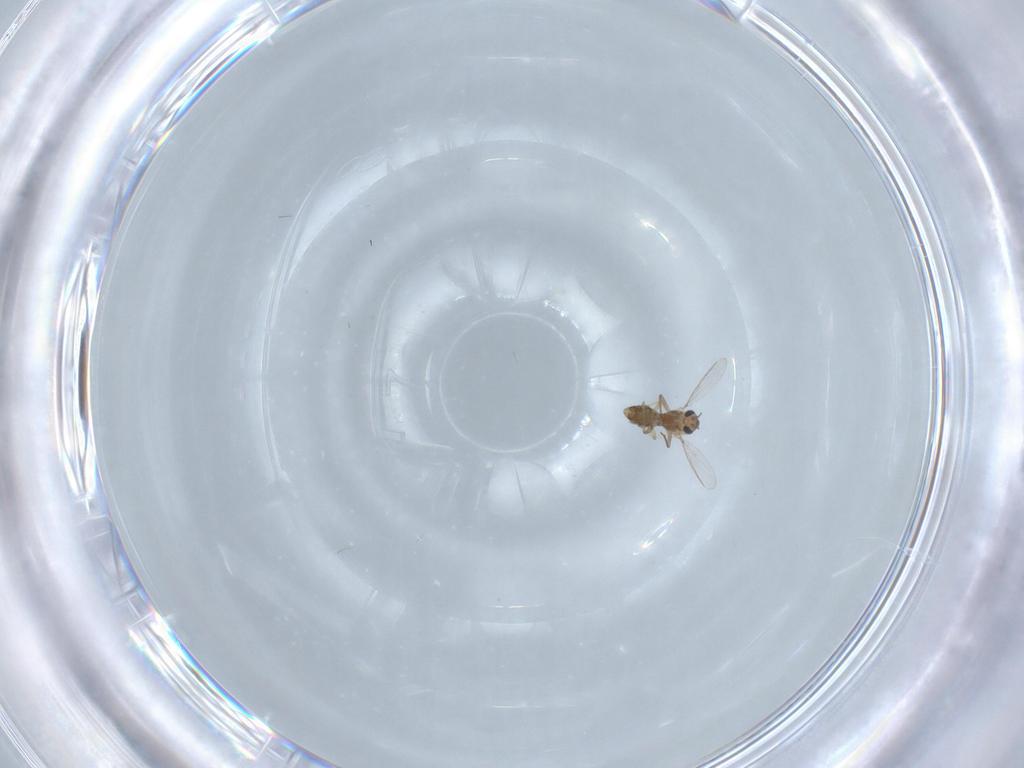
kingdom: Animalia
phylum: Arthropoda
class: Insecta
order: Diptera
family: Chironomidae
